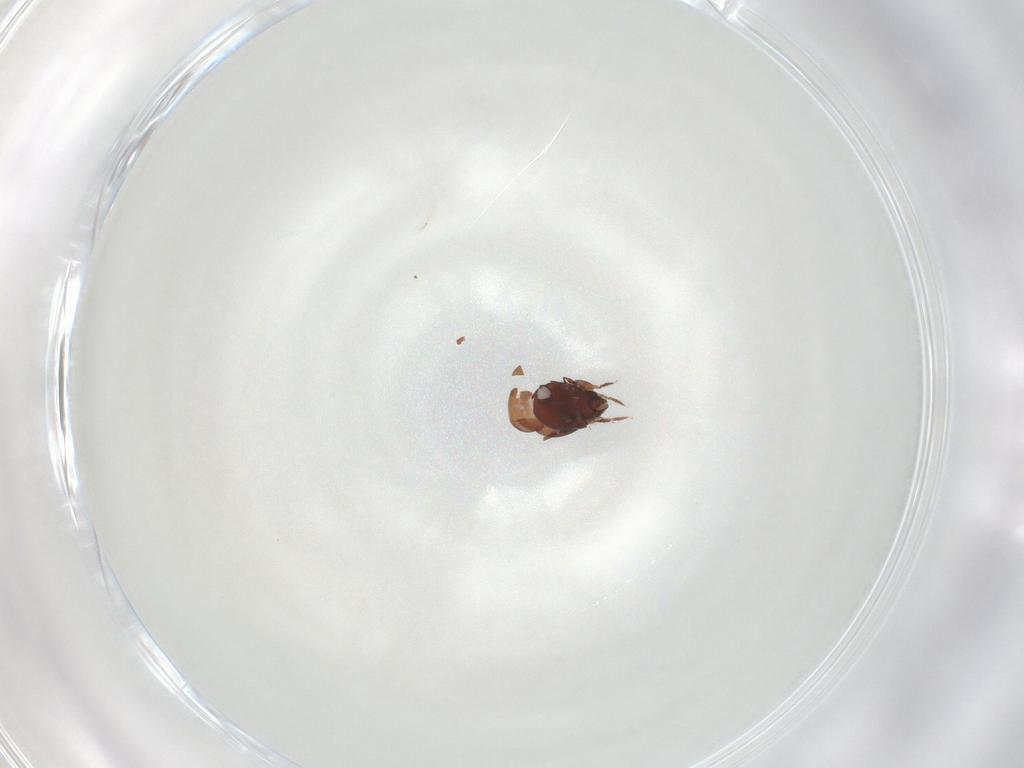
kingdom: Animalia
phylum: Arthropoda
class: Arachnida
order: Sarcoptiformes
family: Humerobatidae
